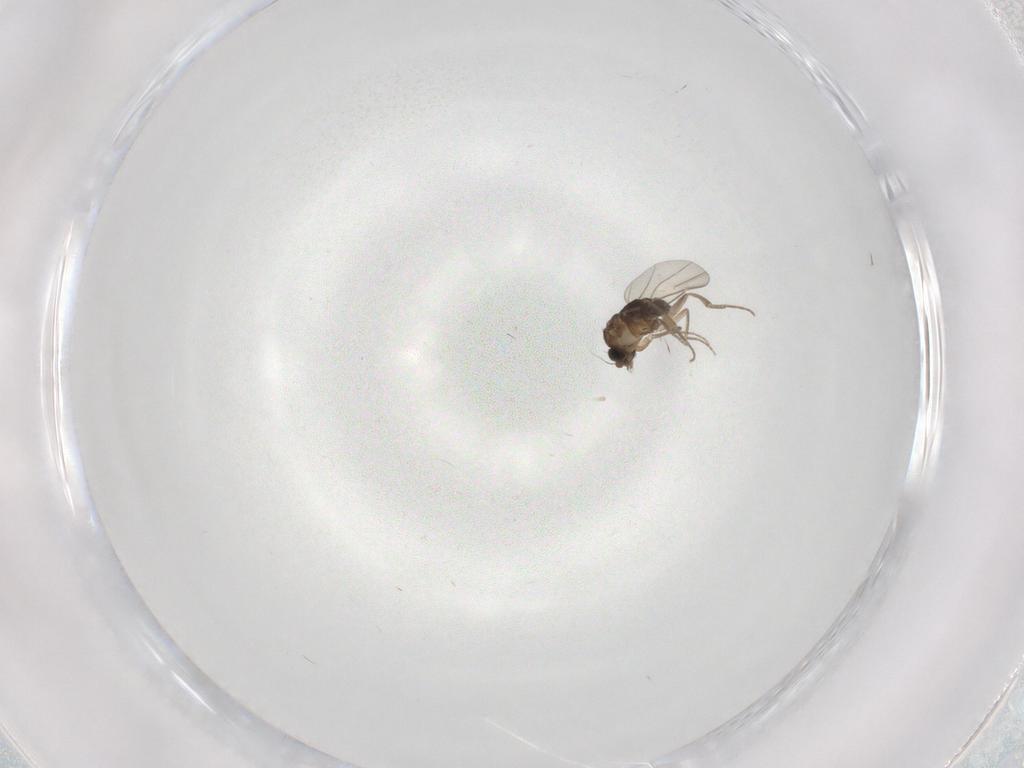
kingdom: Animalia
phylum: Arthropoda
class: Insecta
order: Diptera
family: Phoridae
